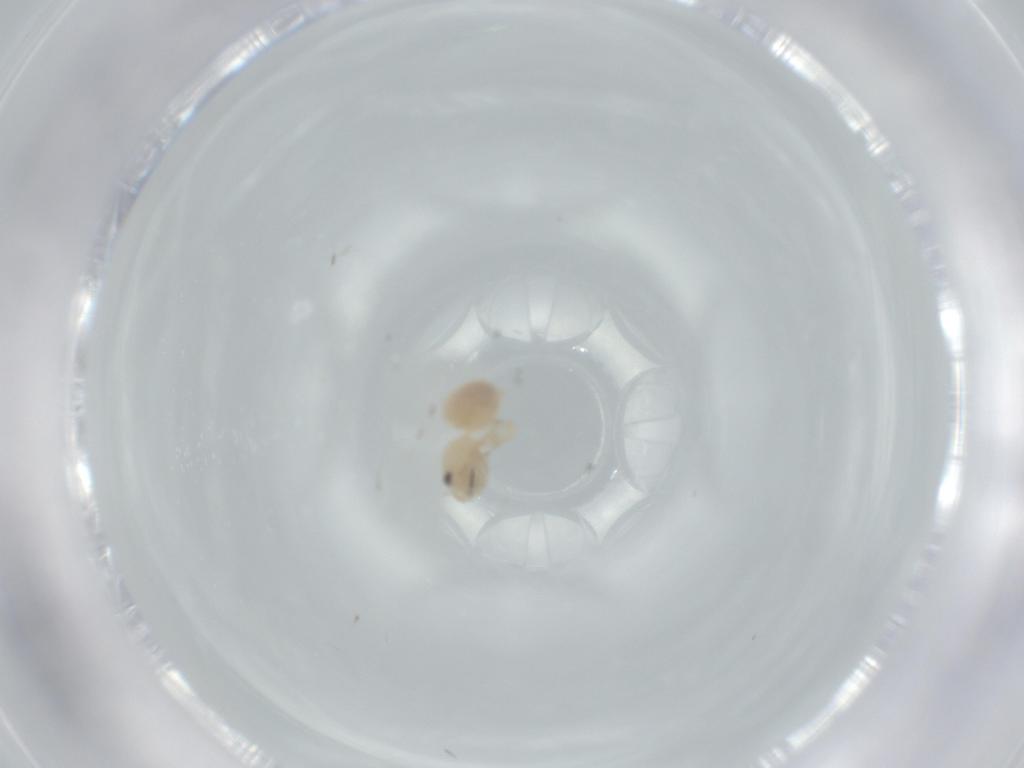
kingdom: Animalia
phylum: Arthropoda
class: Arachnida
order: Araneae
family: Oonopidae
